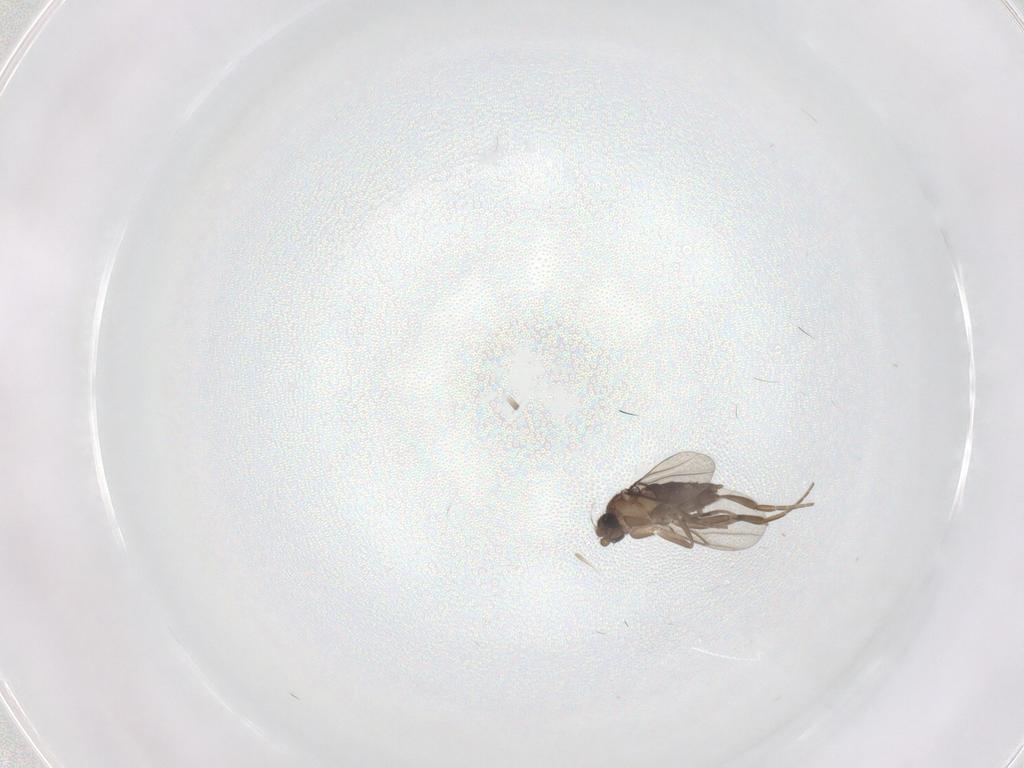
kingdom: Animalia
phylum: Arthropoda
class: Insecta
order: Diptera
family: Phoridae
